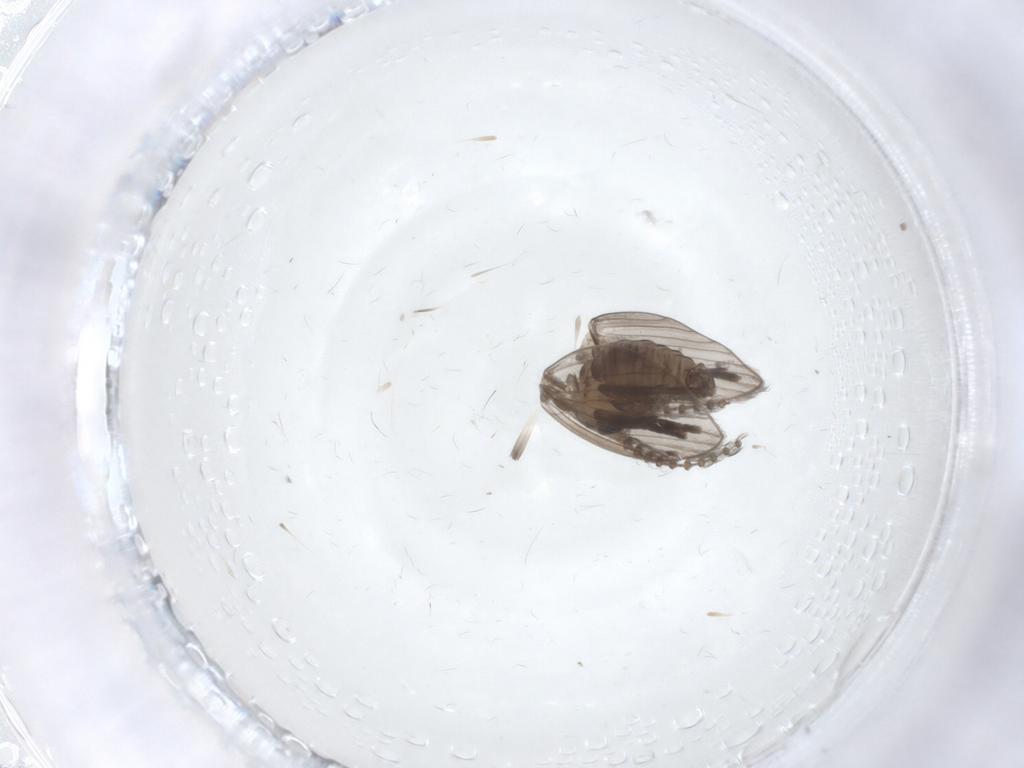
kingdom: Animalia
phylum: Arthropoda
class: Insecta
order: Diptera
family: Psychodidae
